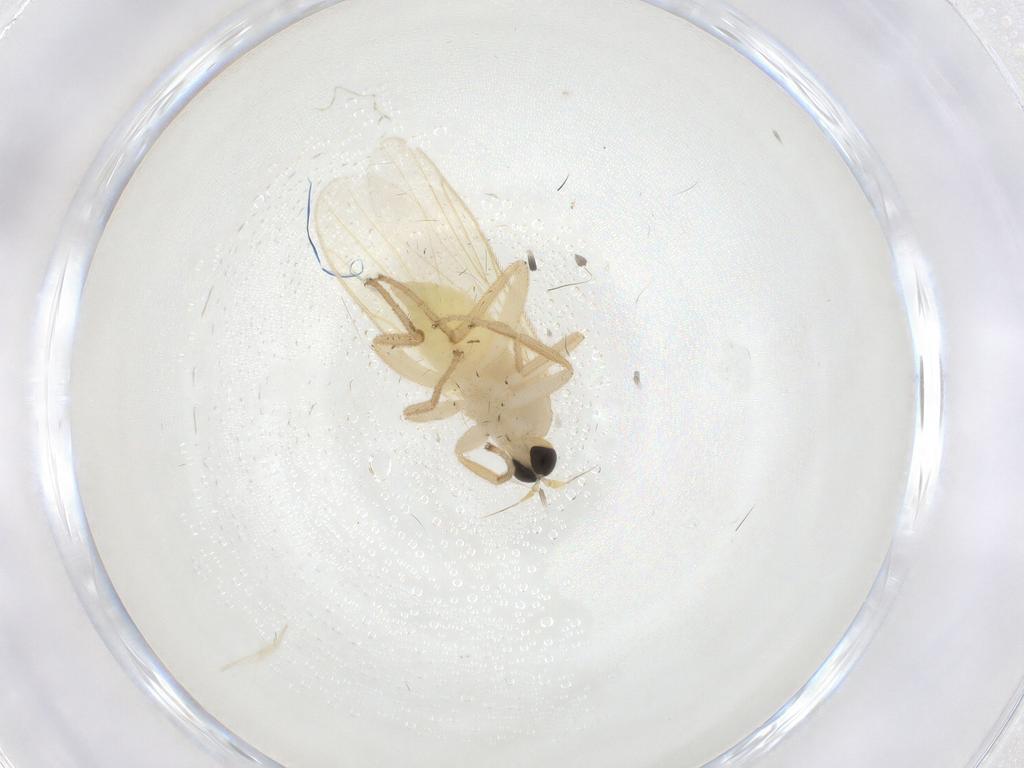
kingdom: Animalia
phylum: Arthropoda
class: Insecta
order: Diptera
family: Hybotidae
